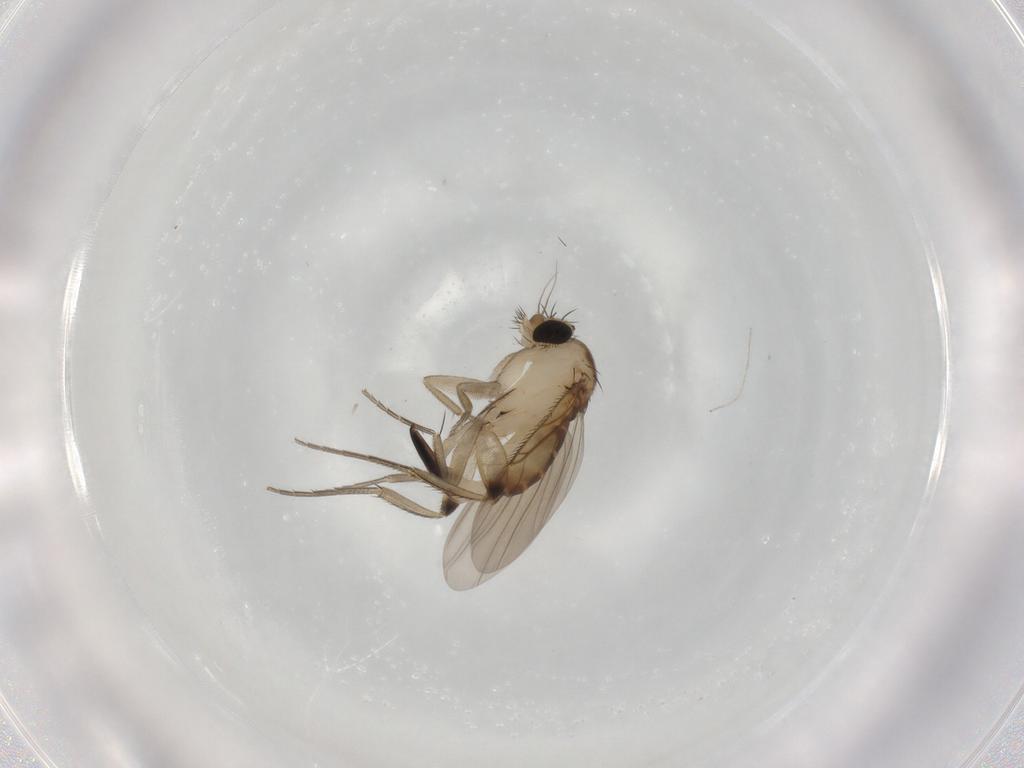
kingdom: Animalia
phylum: Arthropoda
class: Insecta
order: Diptera
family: Phoridae
